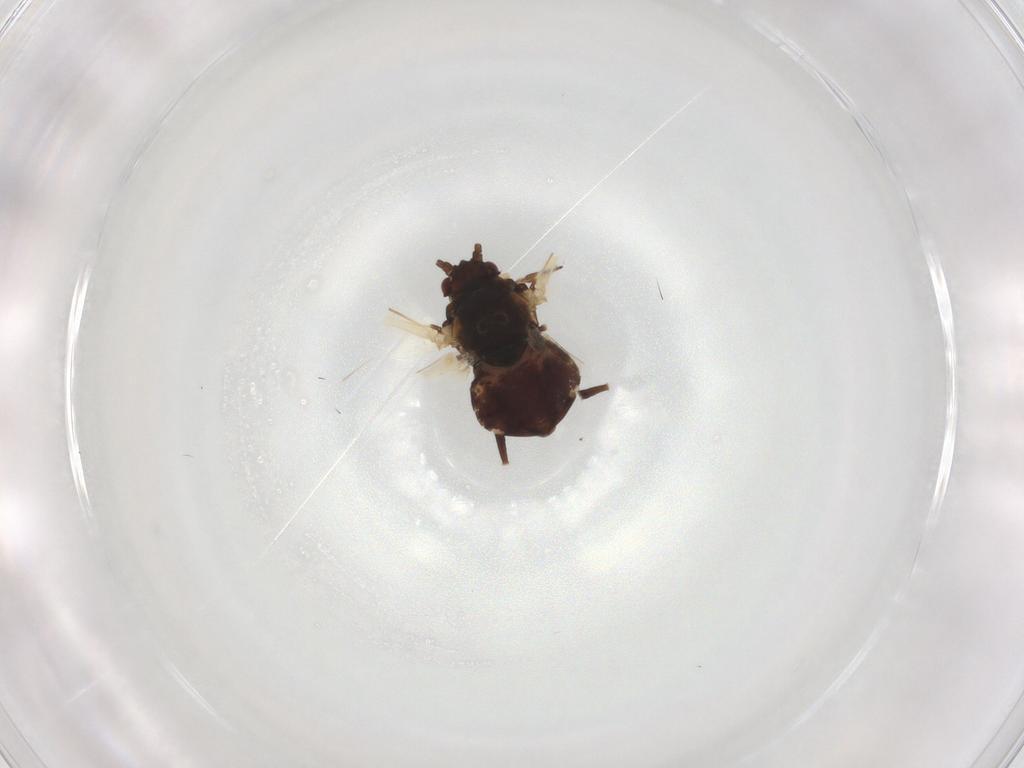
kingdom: Animalia
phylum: Arthropoda
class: Insecta
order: Hemiptera
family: Aphididae
